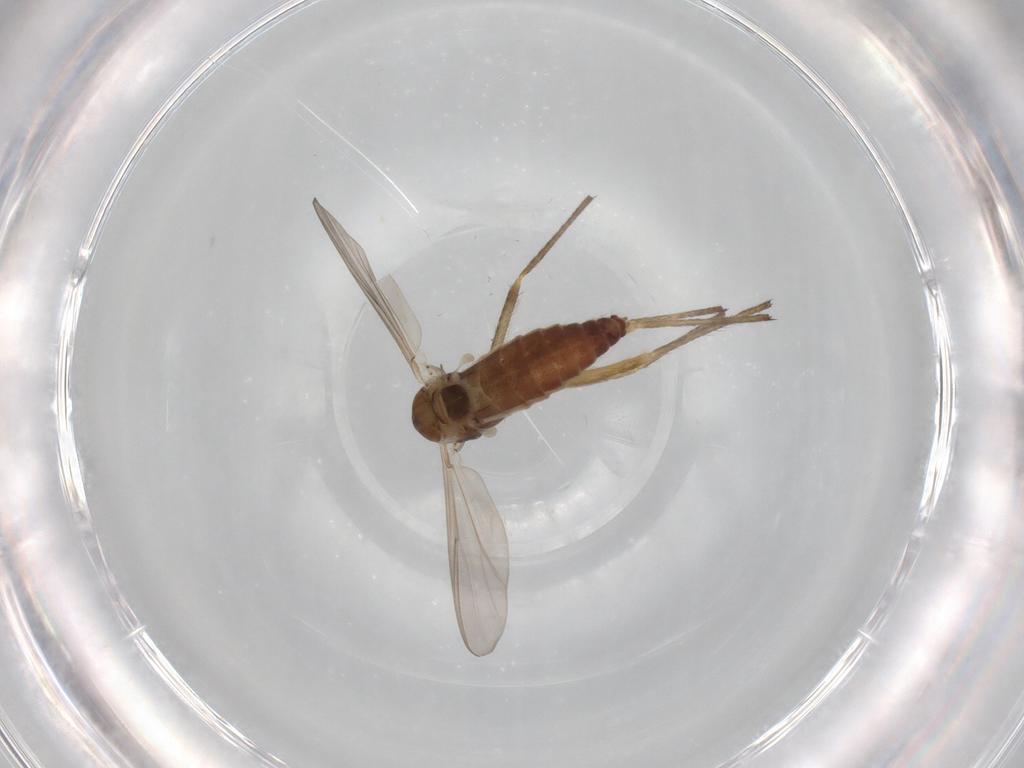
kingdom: Animalia
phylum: Arthropoda
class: Insecta
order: Diptera
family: Chironomidae
